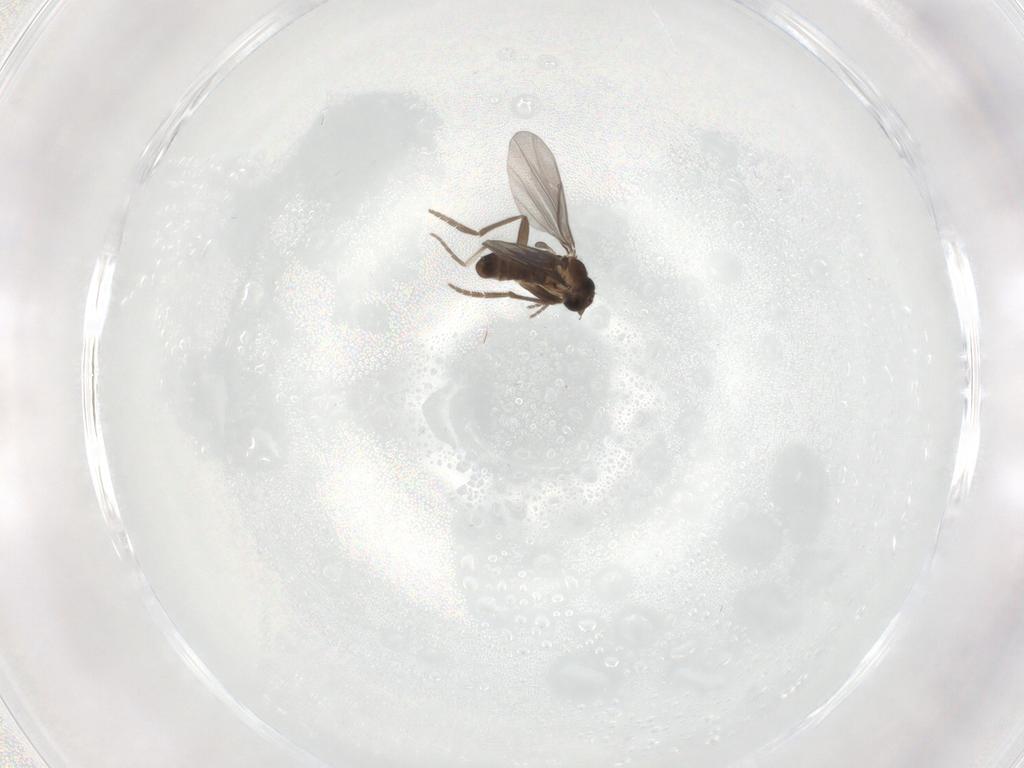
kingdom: Animalia
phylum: Arthropoda
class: Insecta
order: Diptera
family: Phoridae
